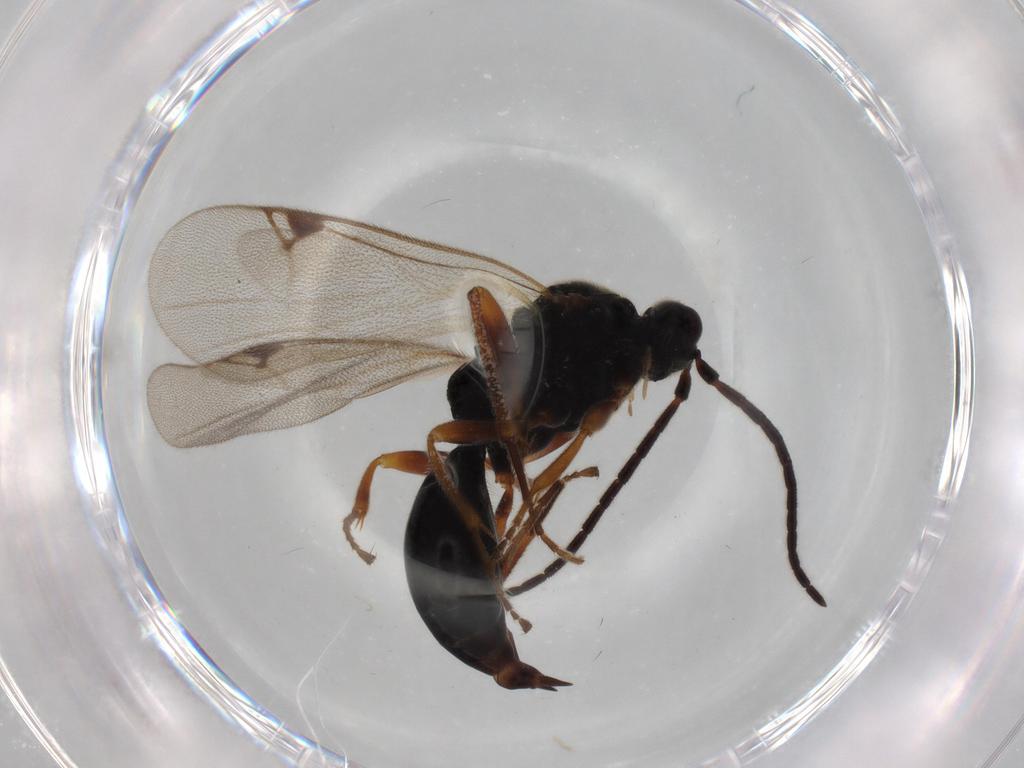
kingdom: Animalia
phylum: Arthropoda
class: Insecta
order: Hymenoptera
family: Proctotrupidae
